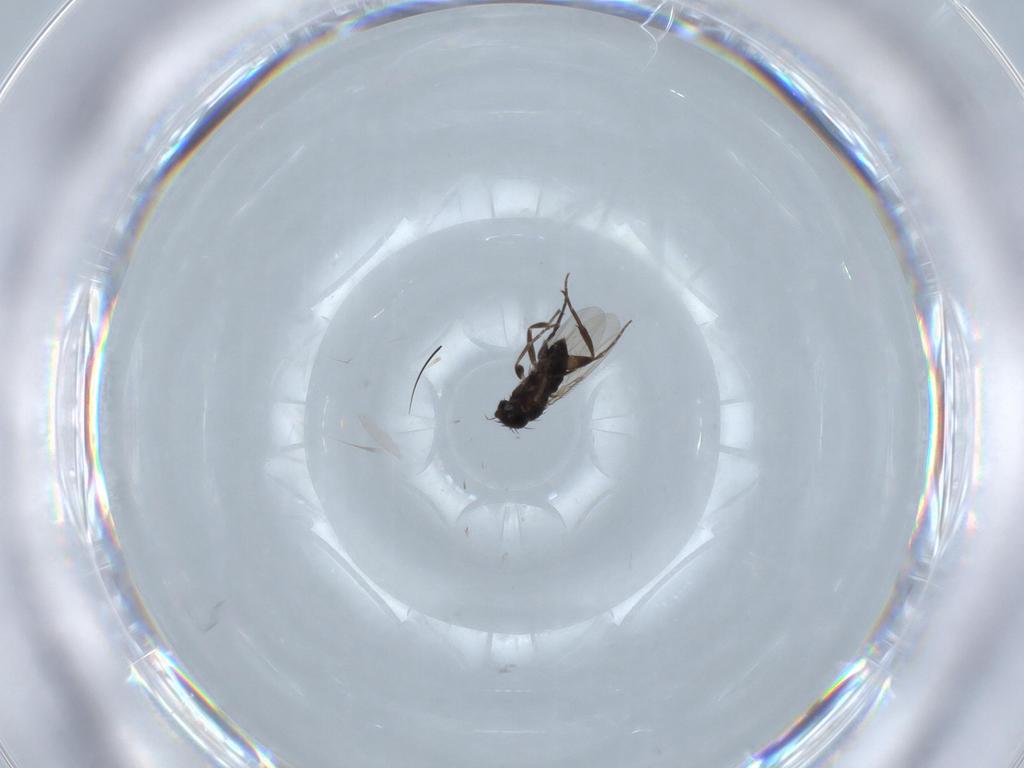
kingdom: Animalia
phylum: Arthropoda
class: Insecta
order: Diptera
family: Phoridae
